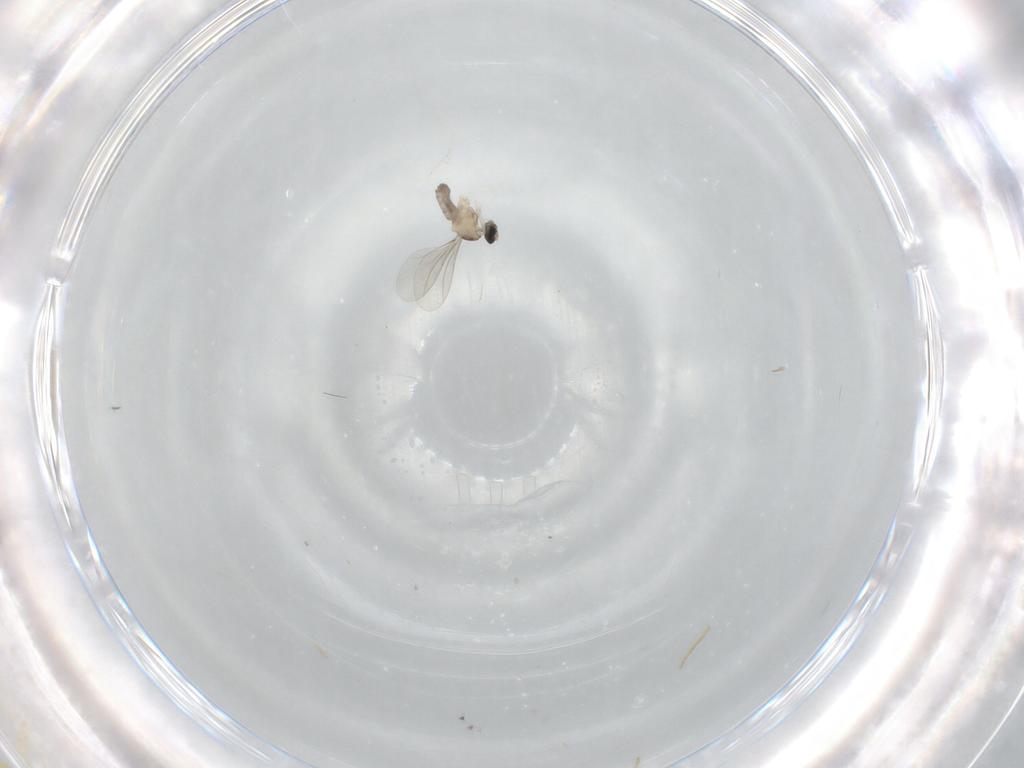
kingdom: Animalia
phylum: Arthropoda
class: Insecta
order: Diptera
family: Cecidomyiidae
